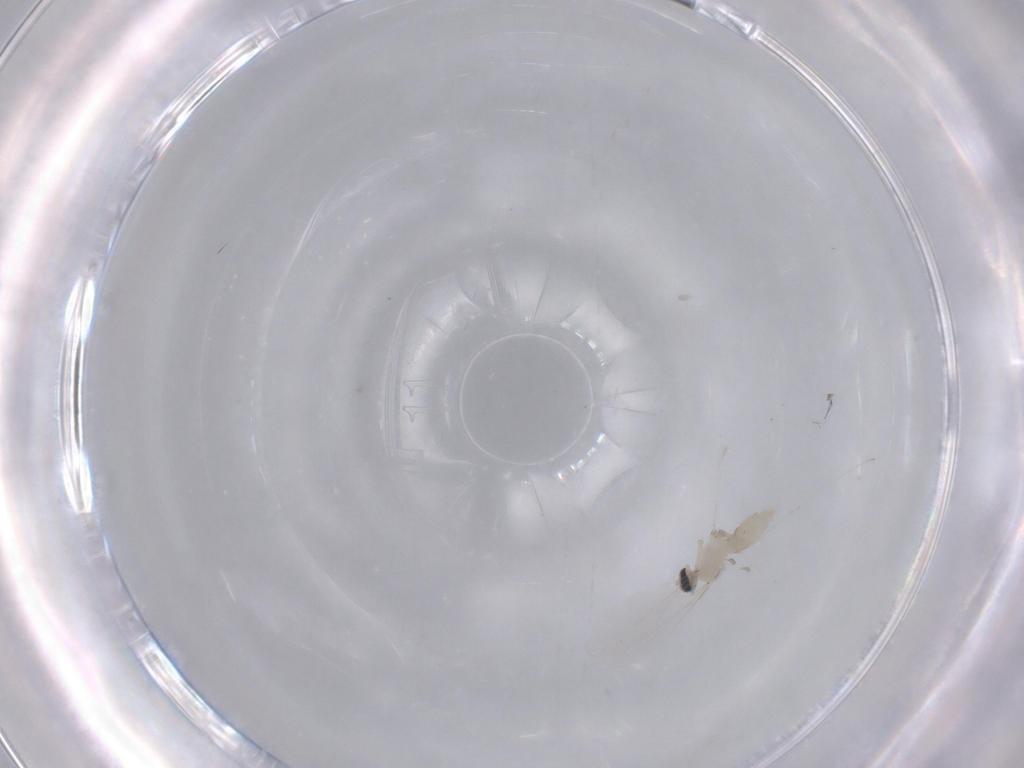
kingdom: Animalia
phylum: Arthropoda
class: Insecta
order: Diptera
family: Cecidomyiidae
